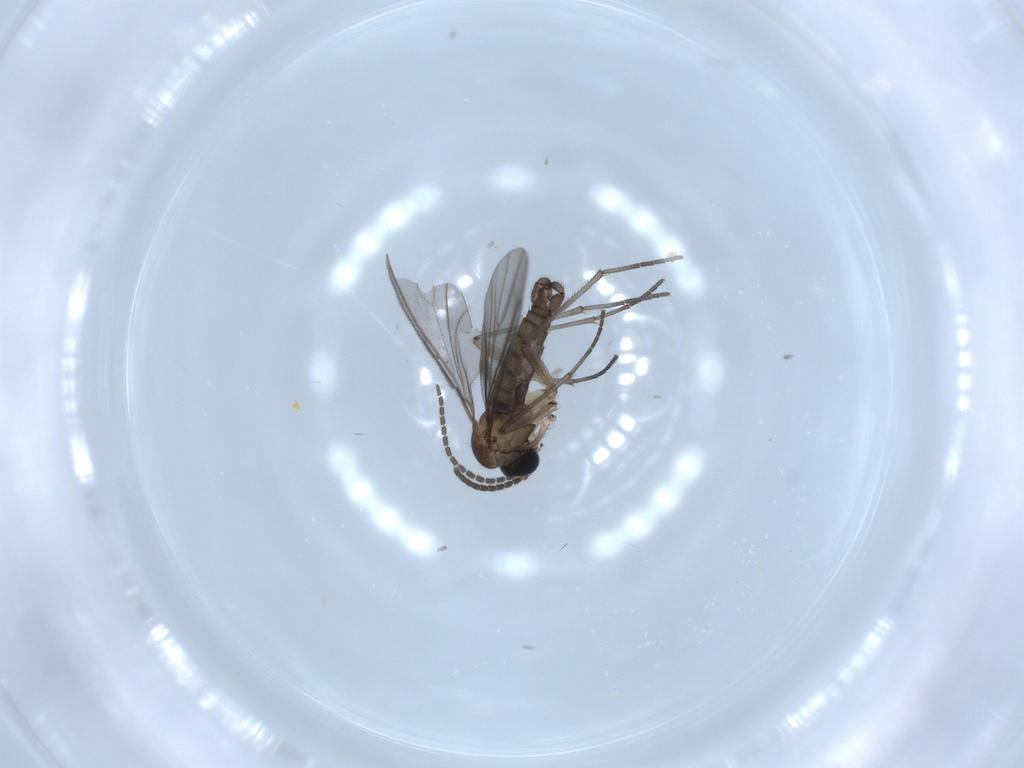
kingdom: Animalia
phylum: Arthropoda
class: Insecta
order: Diptera
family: Sciaridae
